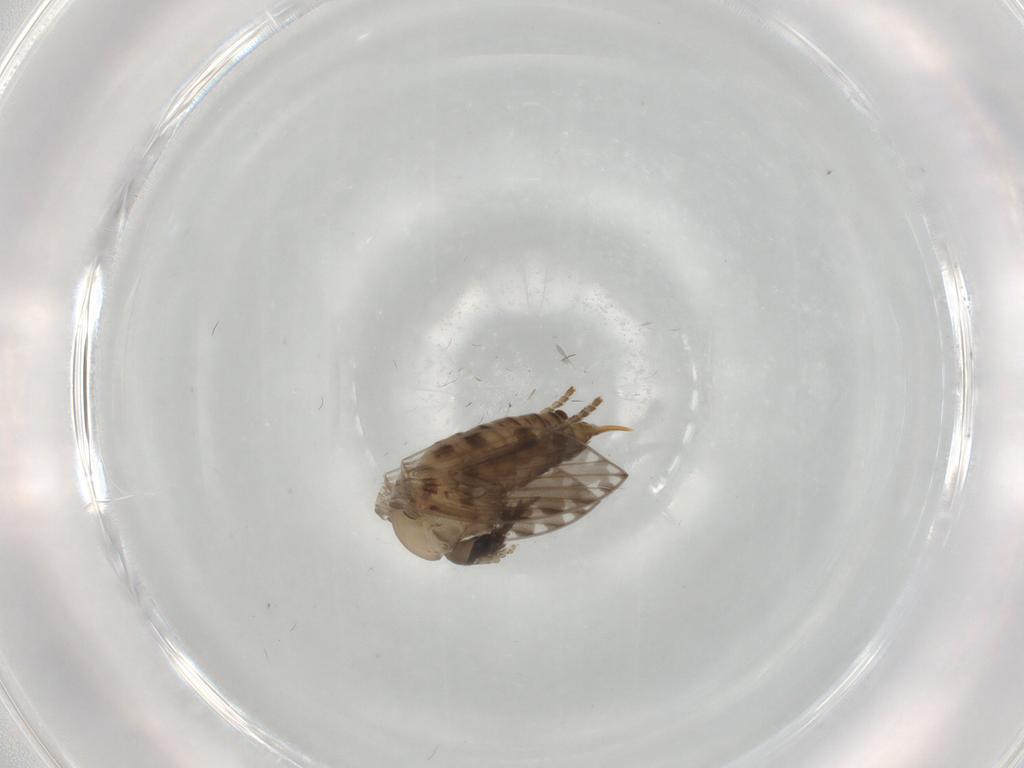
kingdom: Animalia
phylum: Arthropoda
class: Insecta
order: Diptera
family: Psychodidae
